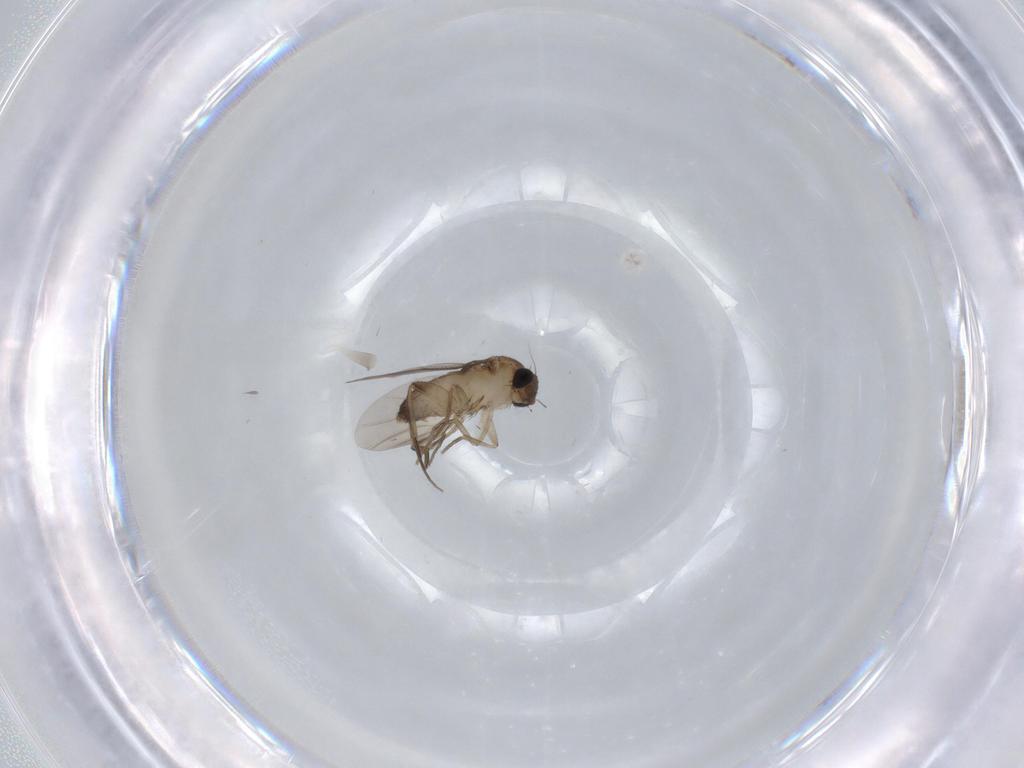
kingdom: Animalia
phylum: Arthropoda
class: Insecta
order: Diptera
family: Phoridae
